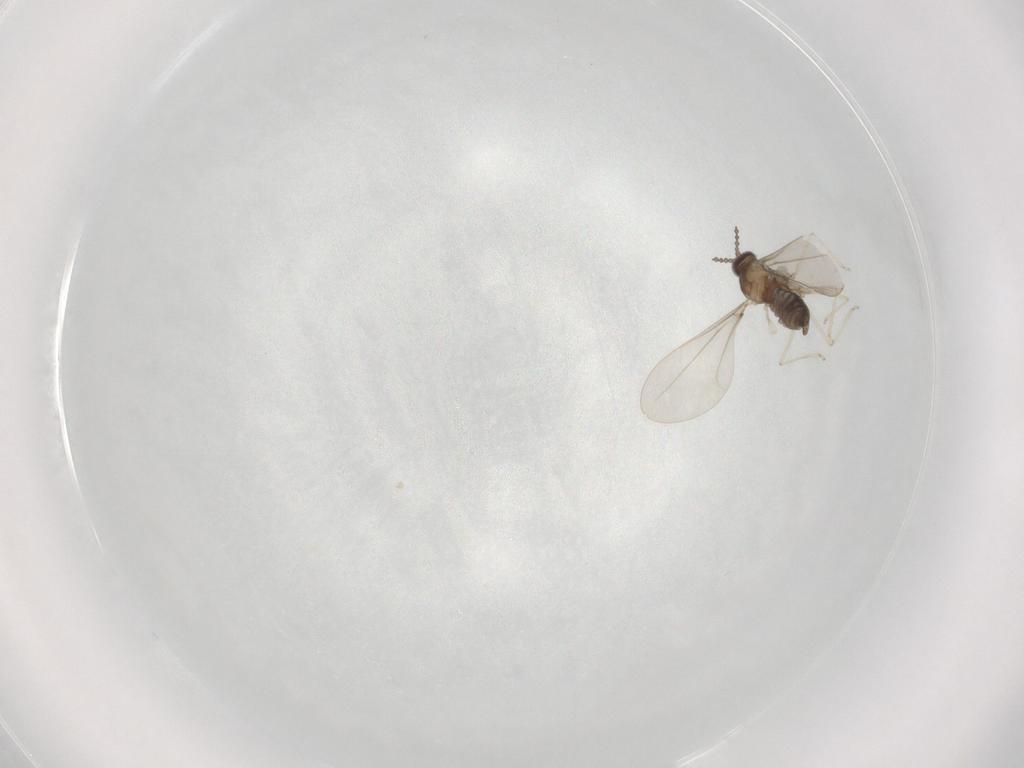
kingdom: Animalia
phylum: Arthropoda
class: Insecta
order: Diptera
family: Cecidomyiidae
